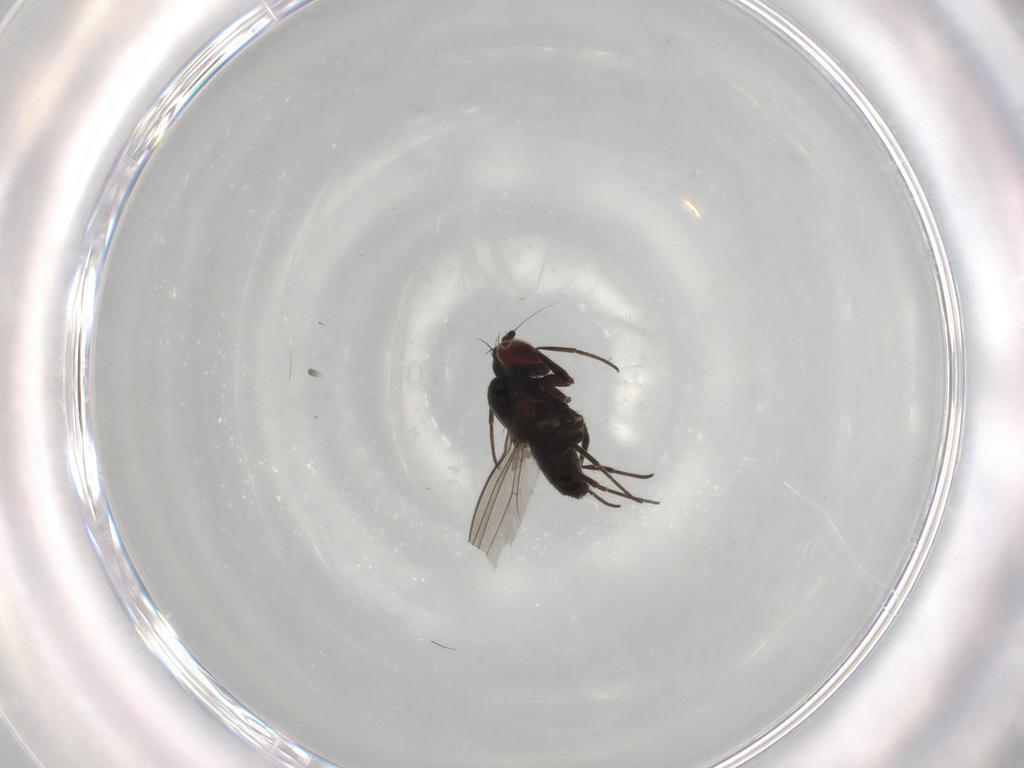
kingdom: Animalia
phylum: Arthropoda
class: Insecta
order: Diptera
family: Dolichopodidae
